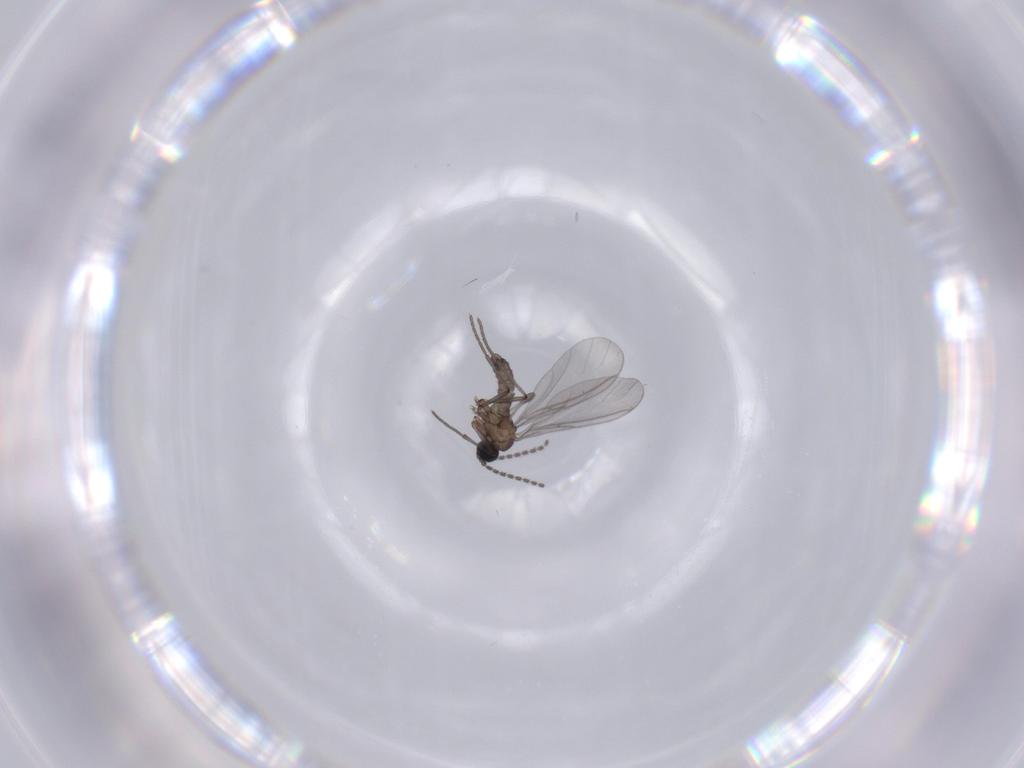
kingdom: Animalia
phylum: Arthropoda
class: Insecta
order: Diptera
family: Sciaridae
